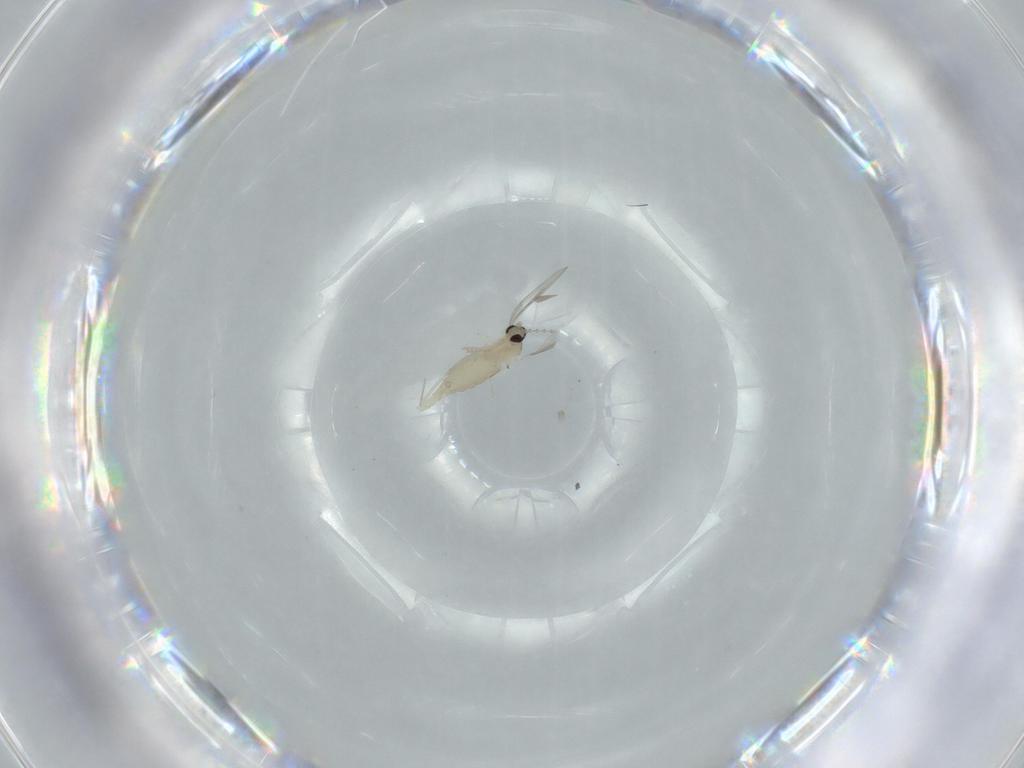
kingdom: Animalia
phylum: Arthropoda
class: Insecta
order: Diptera
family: Cecidomyiidae
